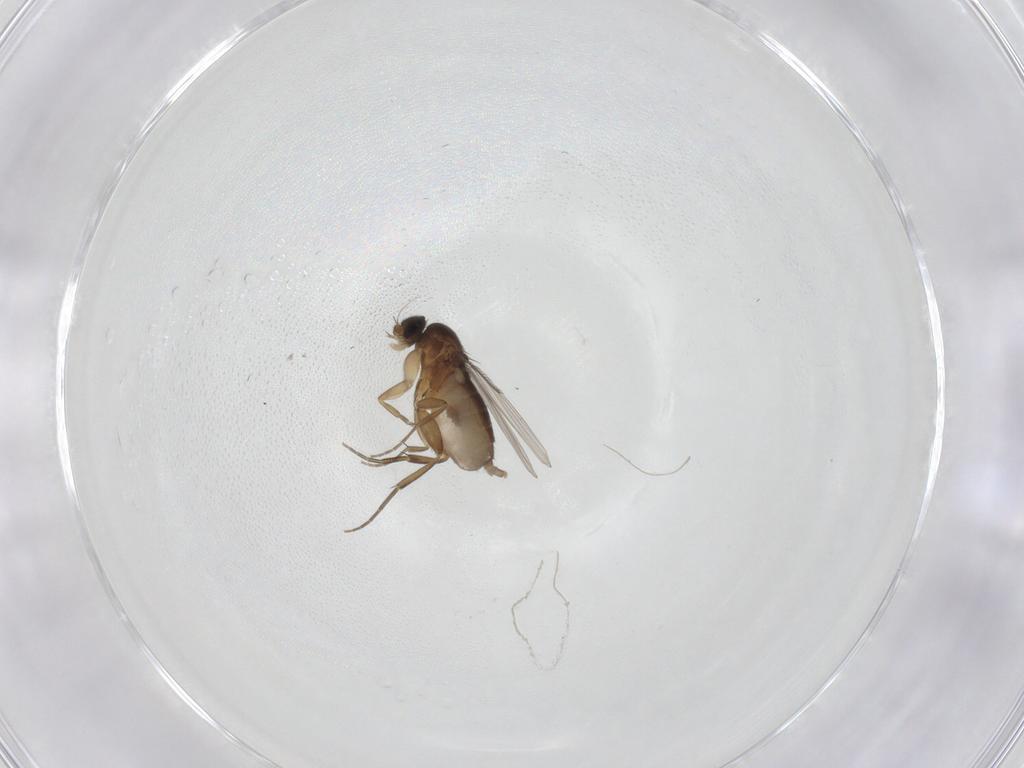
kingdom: Animalia
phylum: Arthropoda
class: Insecta
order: Diptera
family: Phoridae
